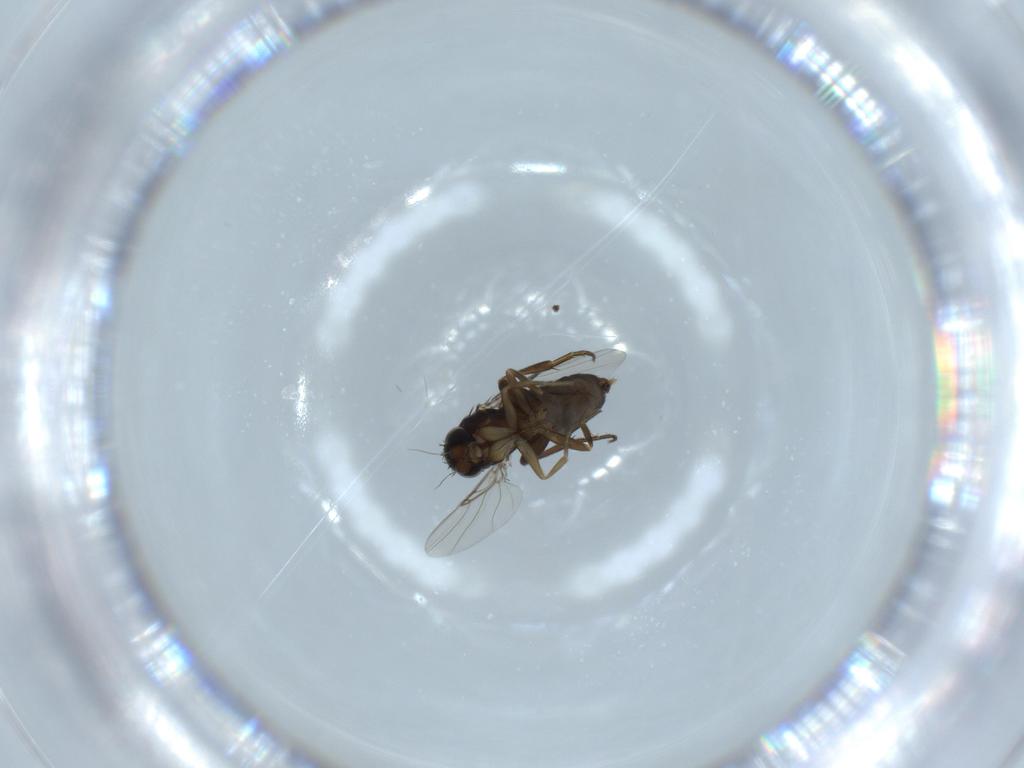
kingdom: Animalia
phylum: Arthropoda
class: Insecta
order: Diptera
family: Phoridae
